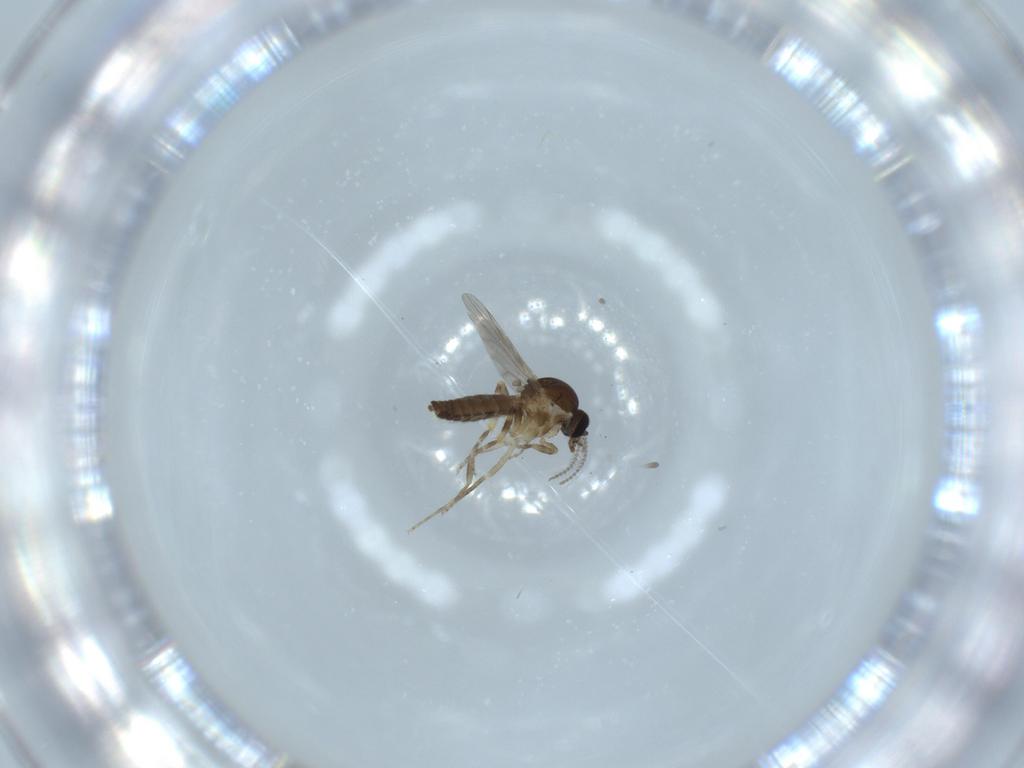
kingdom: Animalia
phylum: Arthropoda
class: Insecta
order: Diptera
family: Ceratopogonidae
